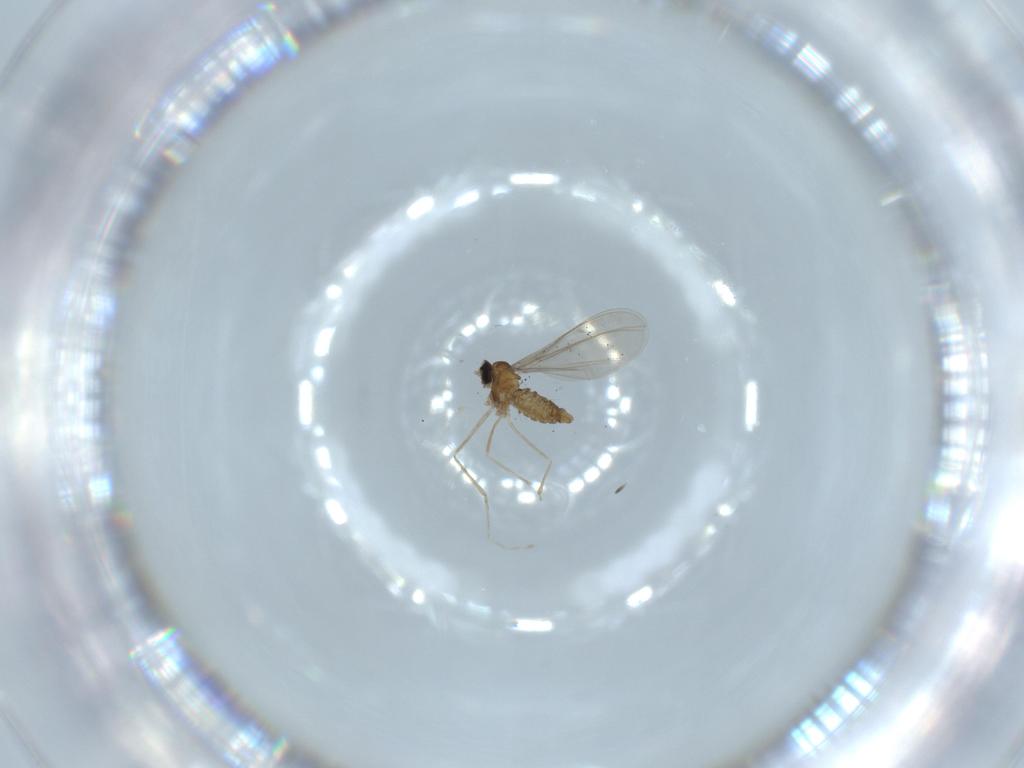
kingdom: Animalia
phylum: Arthropoda
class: Insecta
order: Diptera
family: Cecidomyiidae
